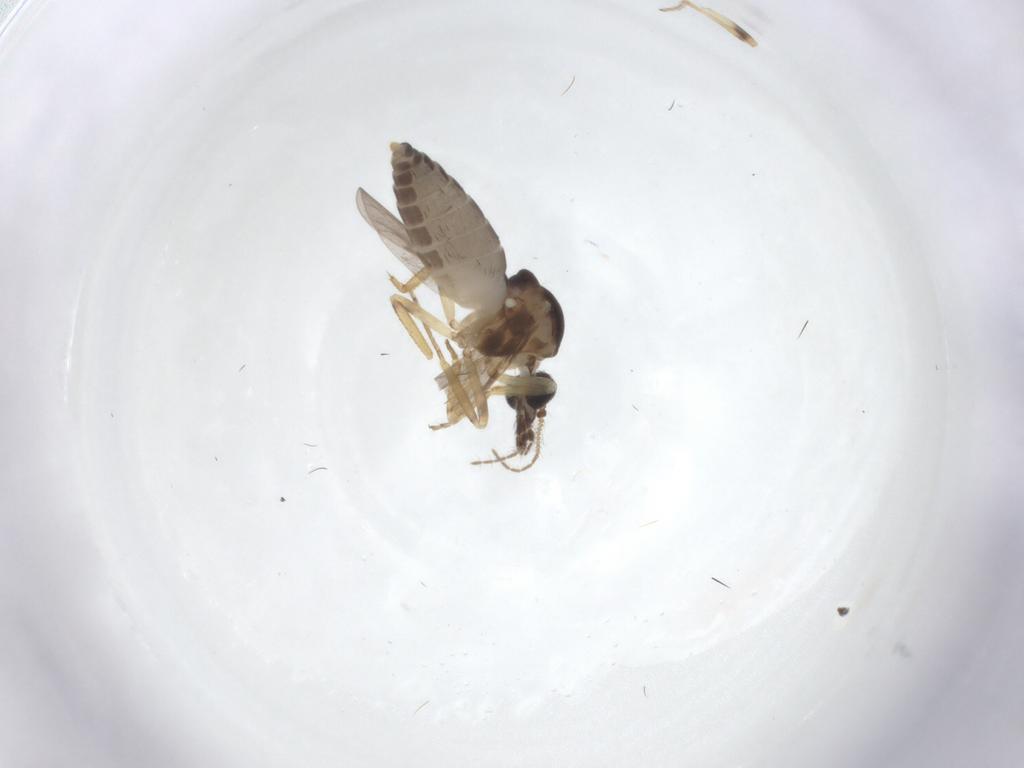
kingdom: Animalia
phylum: Arthropoda
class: Insecta
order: Diptera
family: Ceratopogonidae
